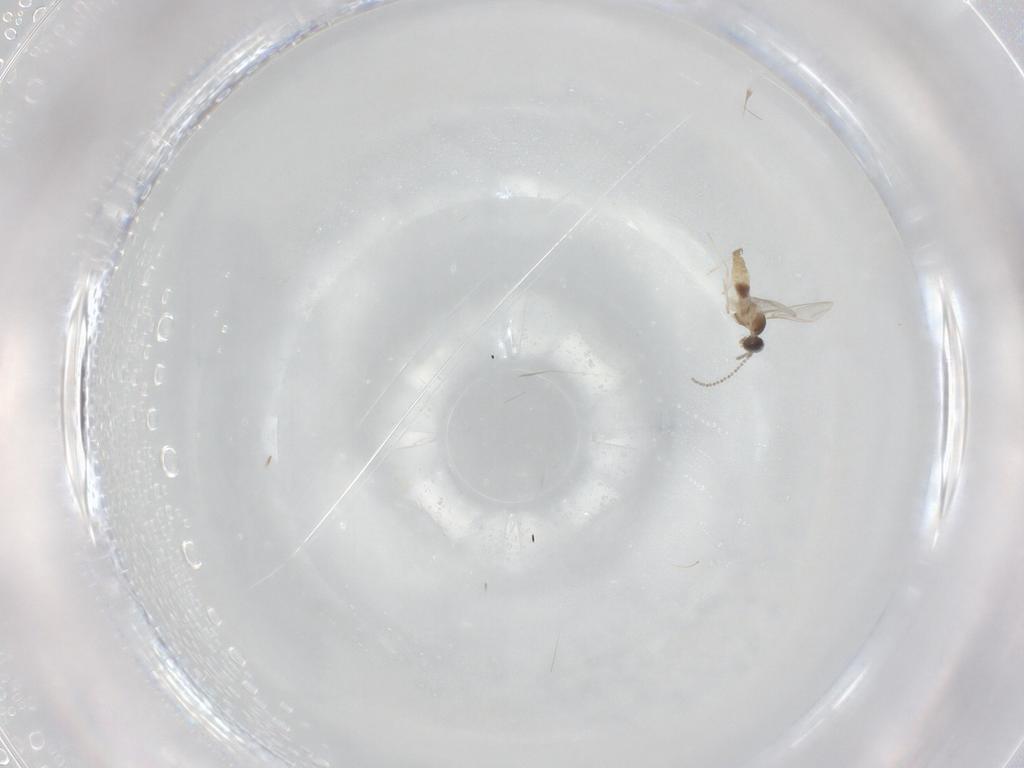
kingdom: Animalia
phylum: Arthropoda
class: Insecta
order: Diptera
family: Cecidomyiidae
